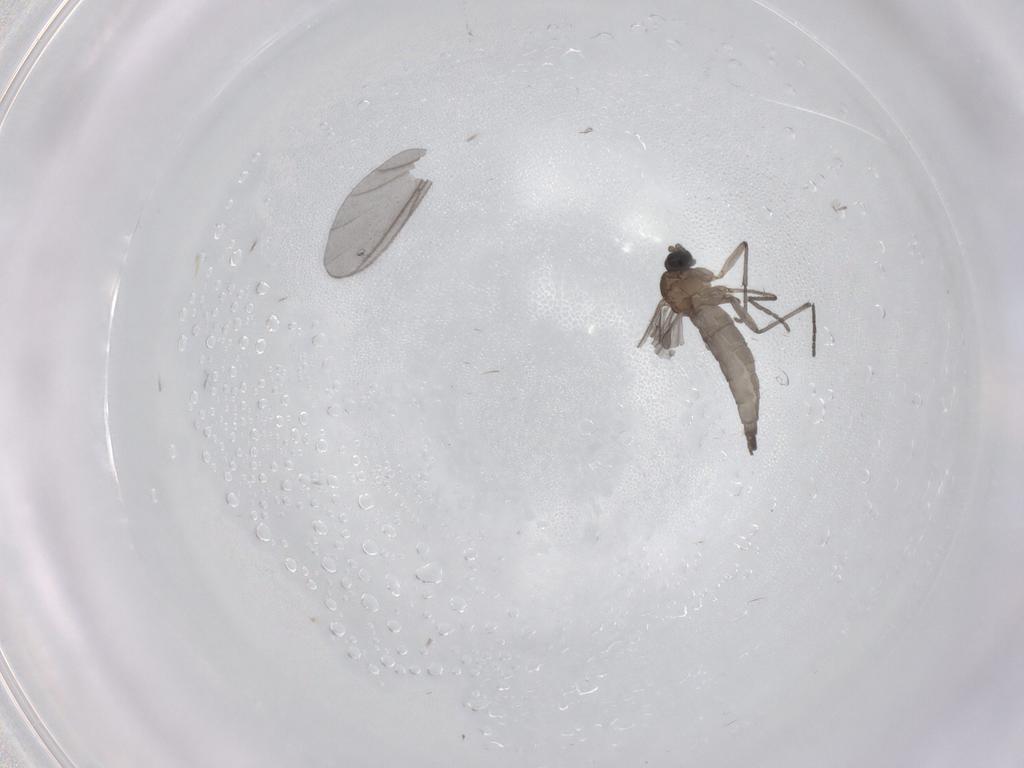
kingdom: Animalia
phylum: Arthropoda
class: Insecta
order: Diptera
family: Sciaridae
